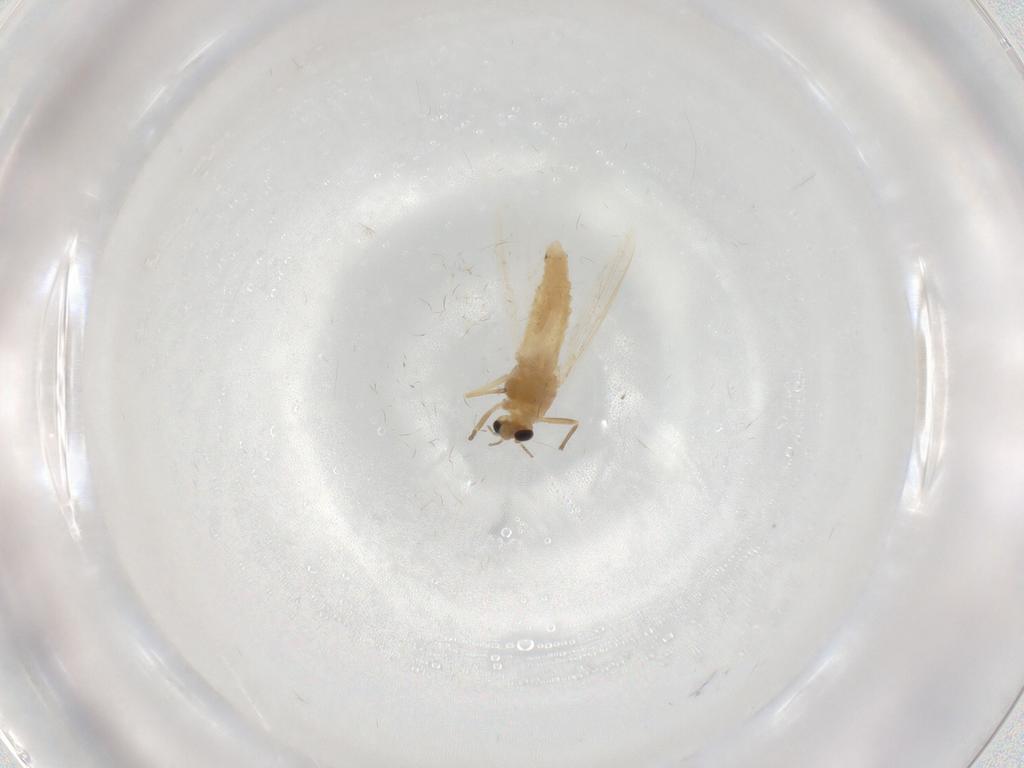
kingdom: Animalia
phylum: Arthropoda
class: Insecta
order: Diptera
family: Chironomidae
